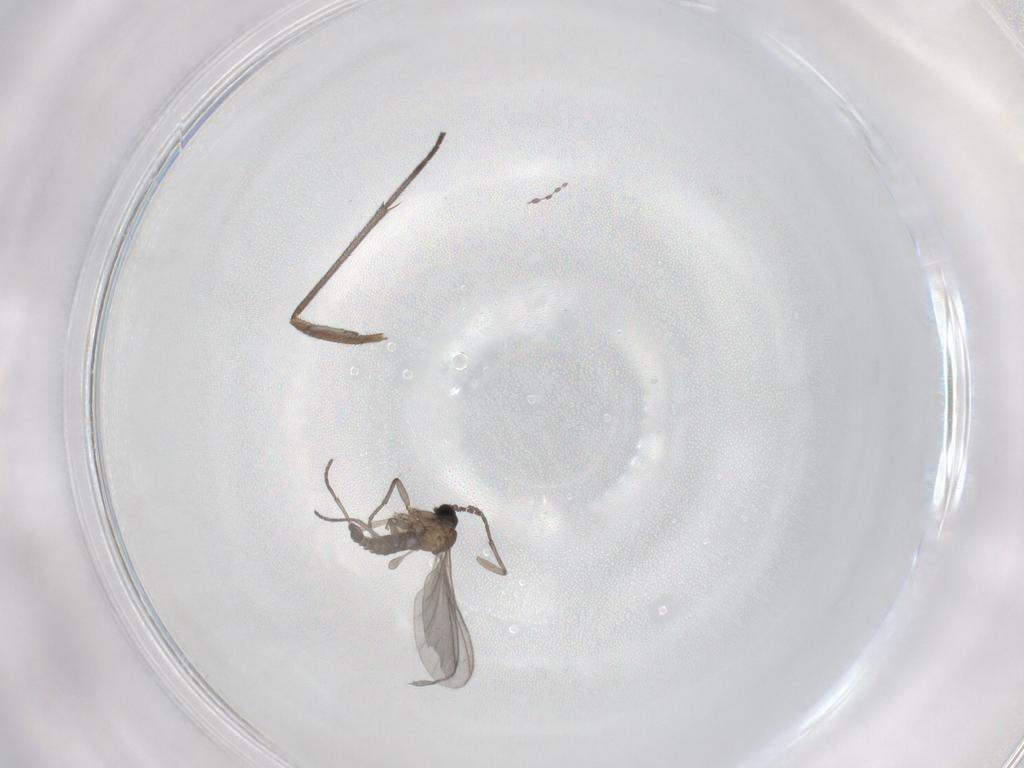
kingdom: Animalia
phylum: Arthropoda
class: Insecta
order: Diptera
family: Sciaridae
